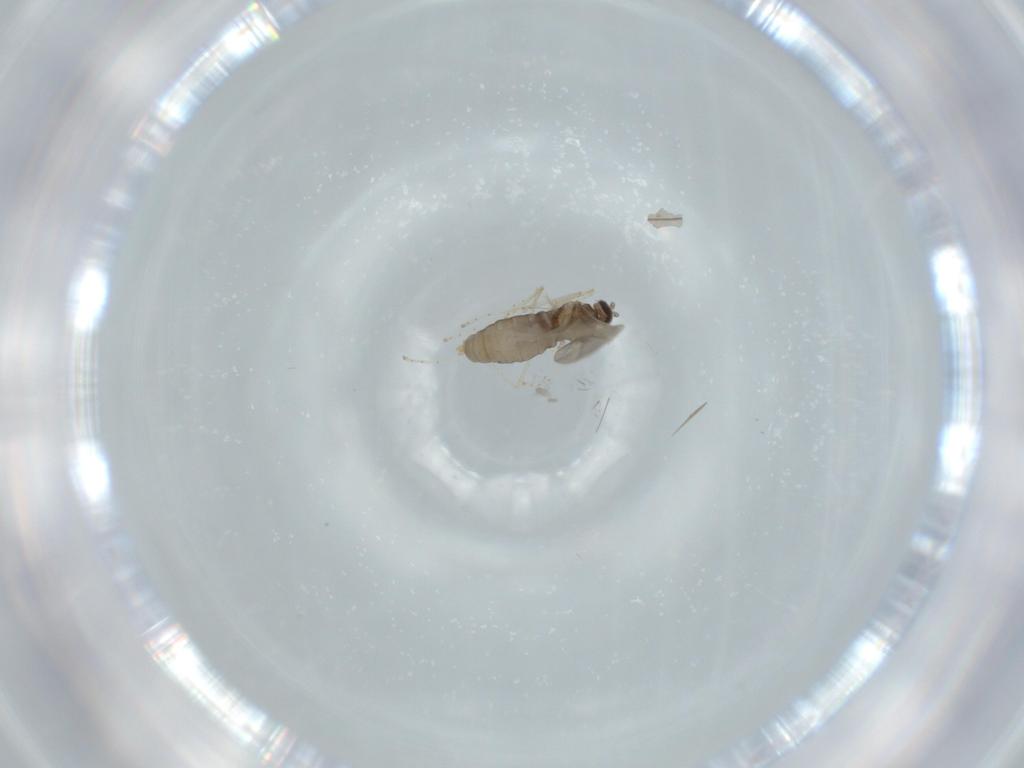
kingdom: Animalia
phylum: Arthropoda
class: Insecta
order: Diptera
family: Cecidomyiidae
